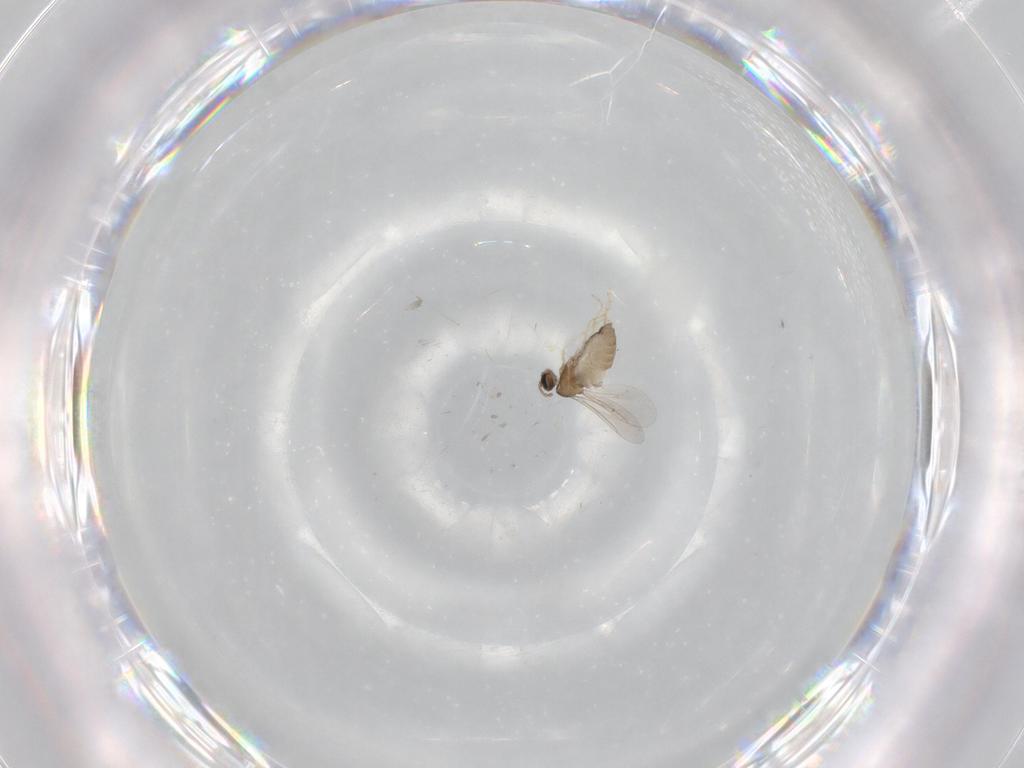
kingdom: Animalia
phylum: Arthropoda
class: Insecta
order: Diptera
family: Cecidomyiidae
